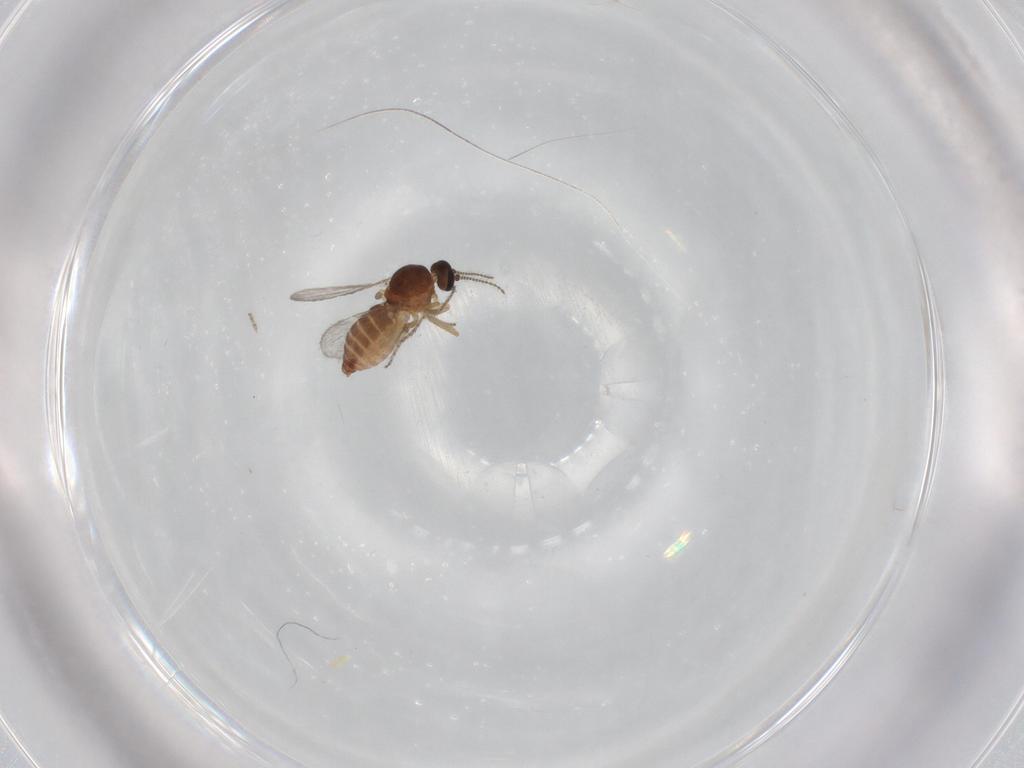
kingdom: Animalia
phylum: Arthropoda
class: Insecta
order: Diptera
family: Ceratopogonidae
